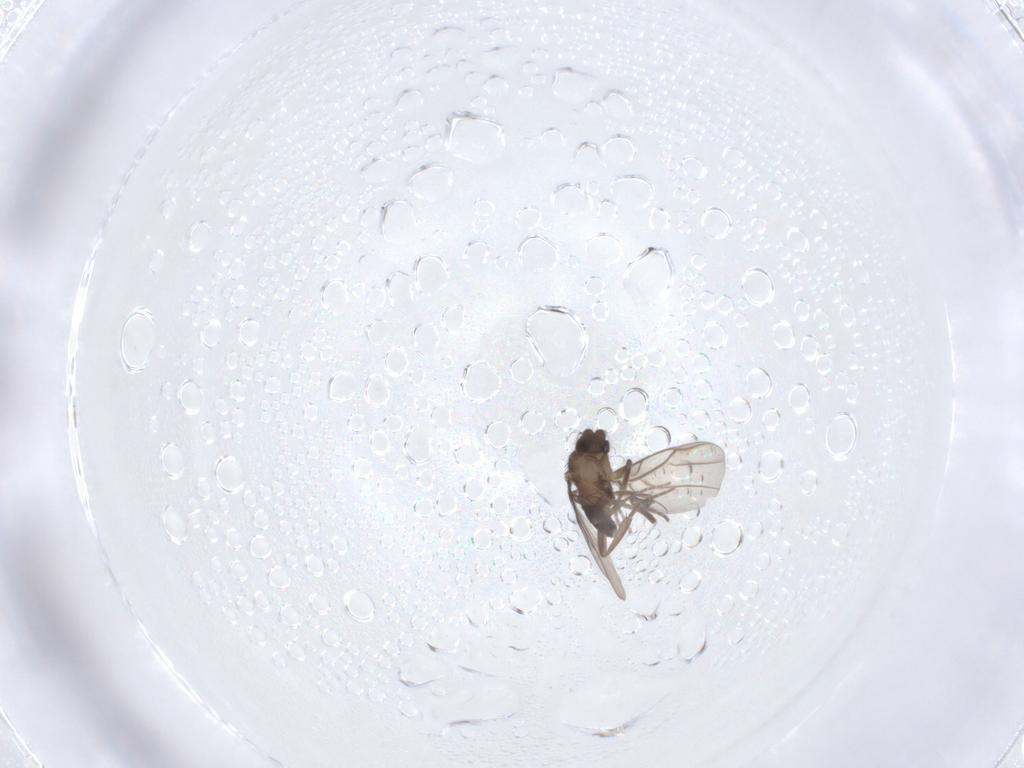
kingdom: Animalia
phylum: Arthropoda
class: Insecta
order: Diptera
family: Phoridae
